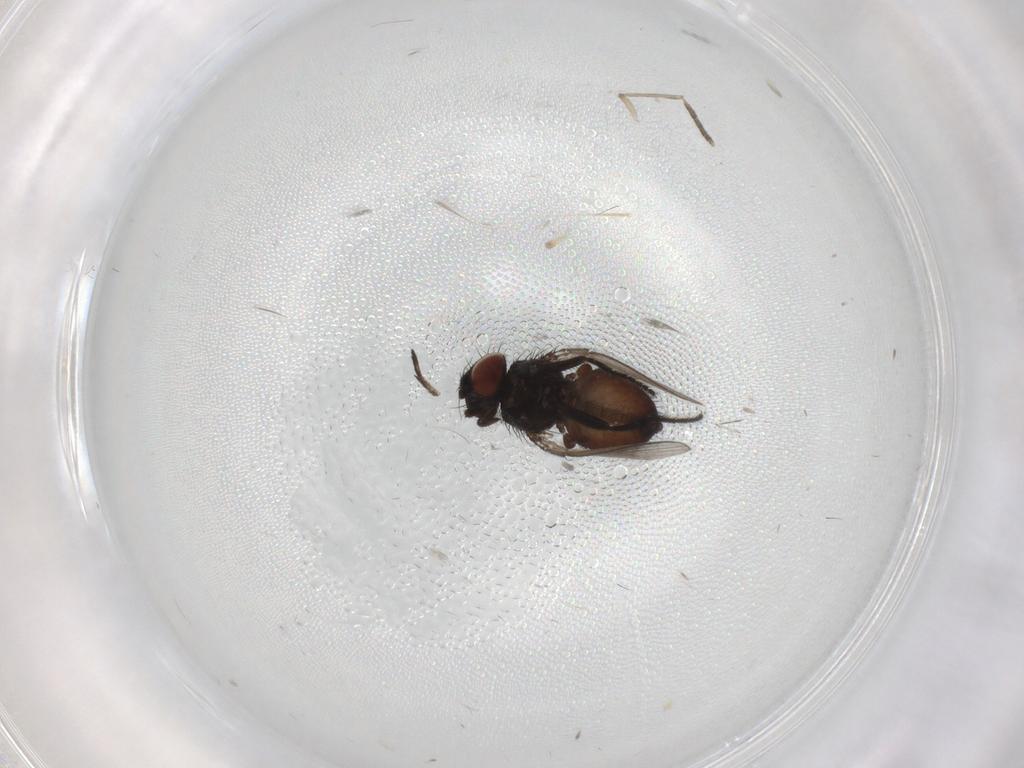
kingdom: Animalia
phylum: Arthropoda
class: Insecta
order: Diptera
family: Milichiidae
